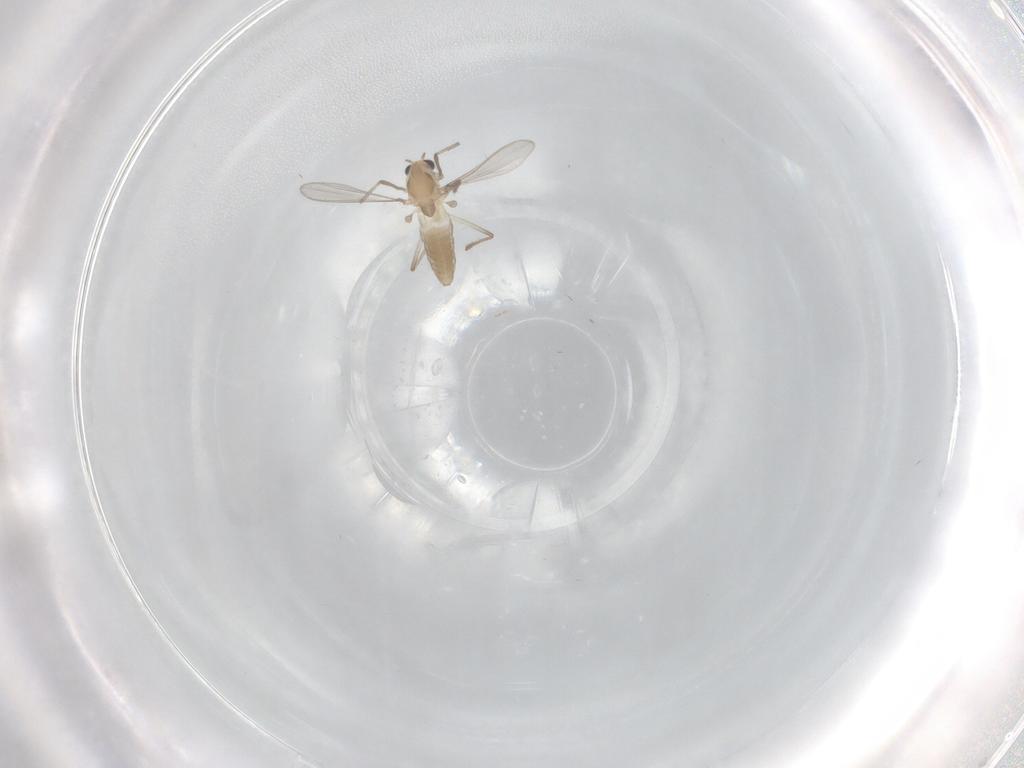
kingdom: Animalia
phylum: Arthropoda
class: Insecta
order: Diptera
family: Chironomidae
